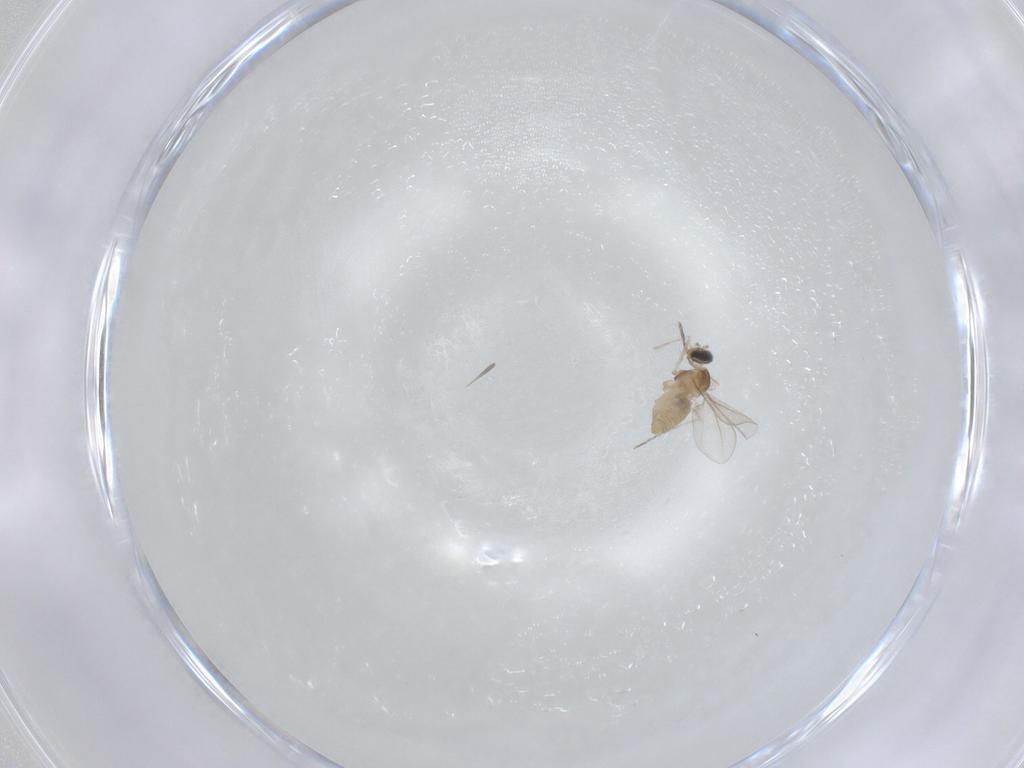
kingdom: Animalia
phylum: Arthropoda
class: Insecta
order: Diptera
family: Cecidomyiidae
